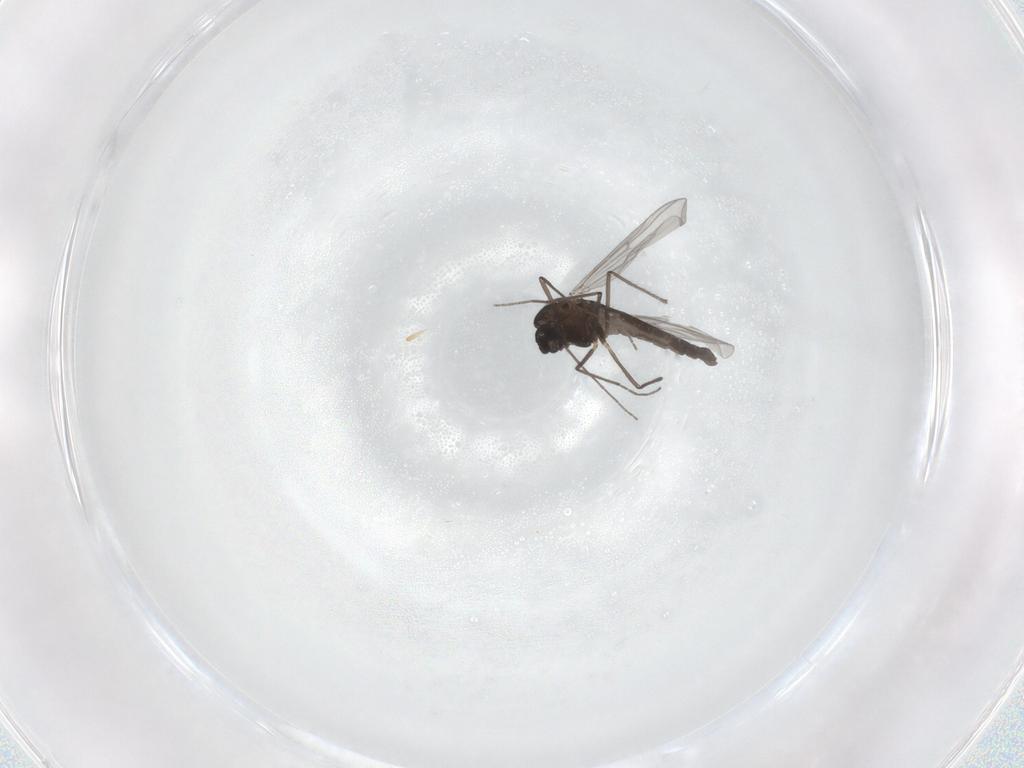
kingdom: Animalia
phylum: Arthropoda
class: Insecta
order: Diptera
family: Chironomidae
